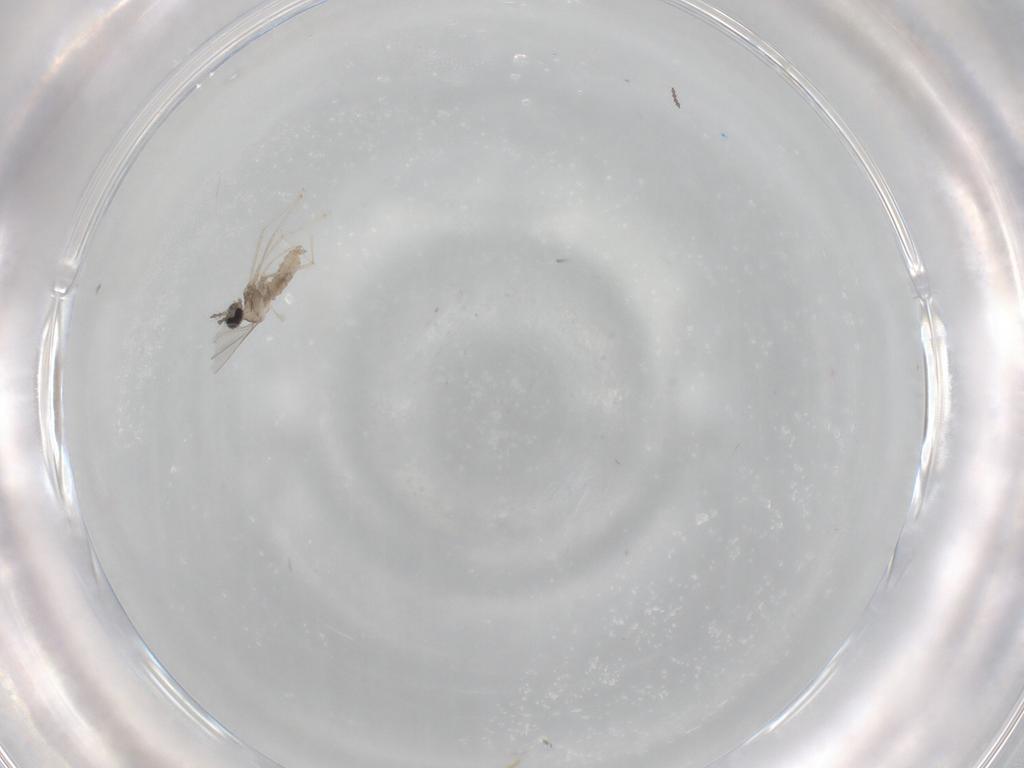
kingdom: Animalia
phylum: Arthropoda
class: Insecta
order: Diptera
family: Cecidomyiidae
